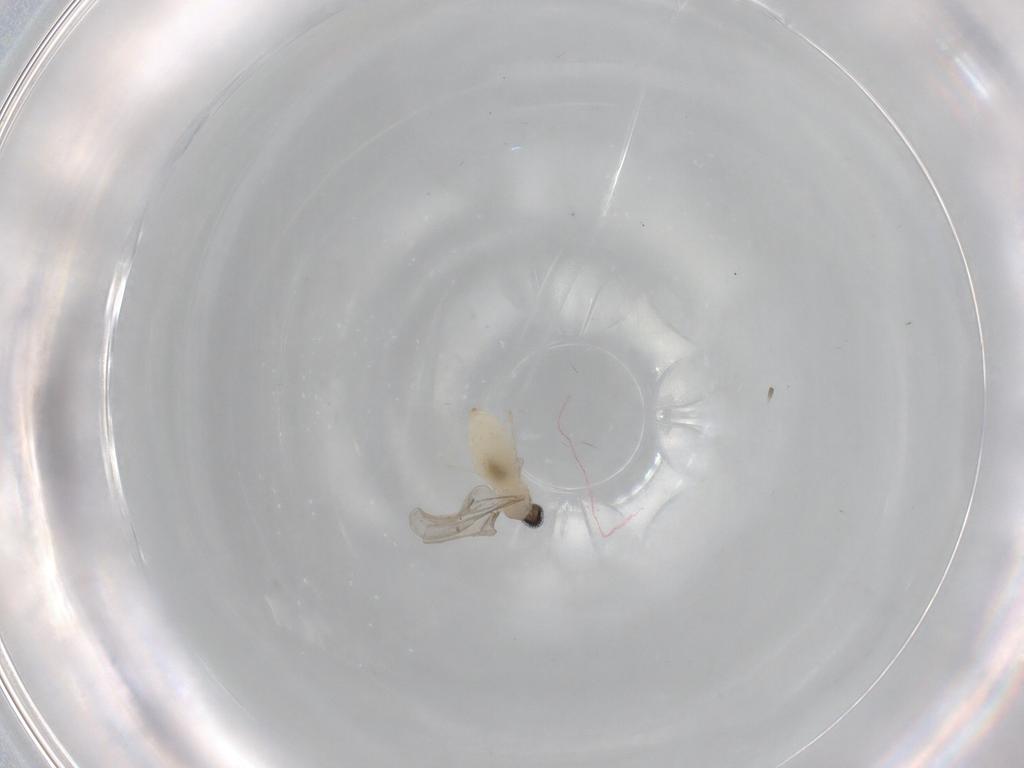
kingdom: Animalia
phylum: Arthropoda
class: Insecta
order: Diptera
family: Cecidomyiidae
